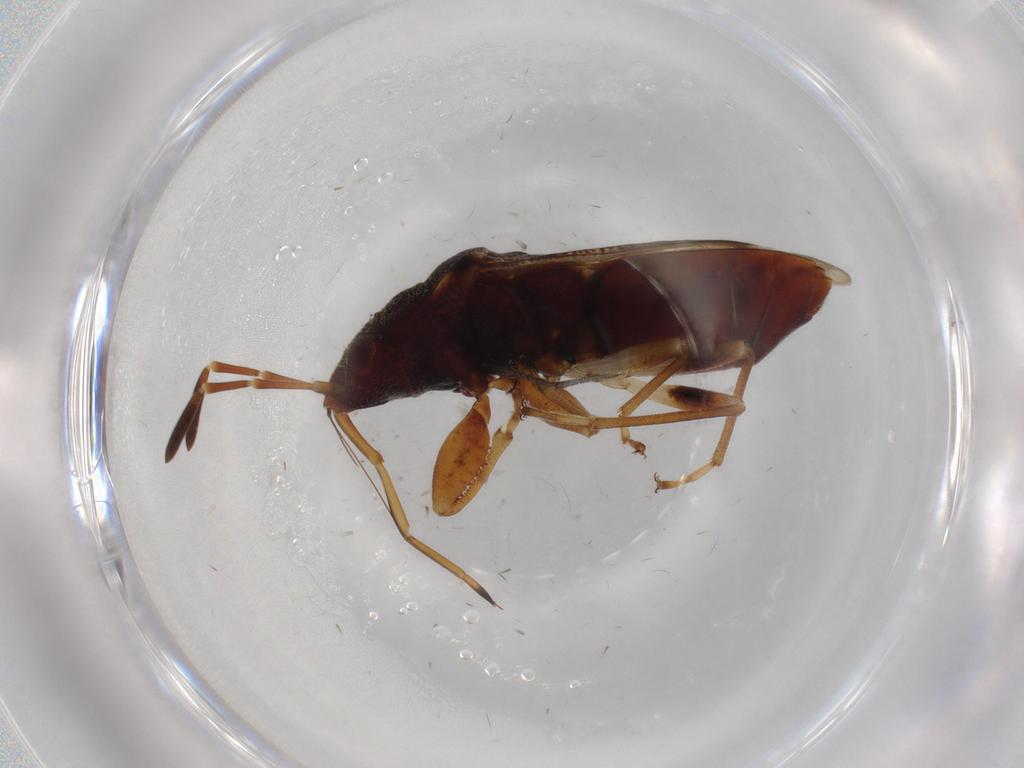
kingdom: Animalia
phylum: Arthropoda
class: Insecta
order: Hemiptera
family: Rhyparochromidae
